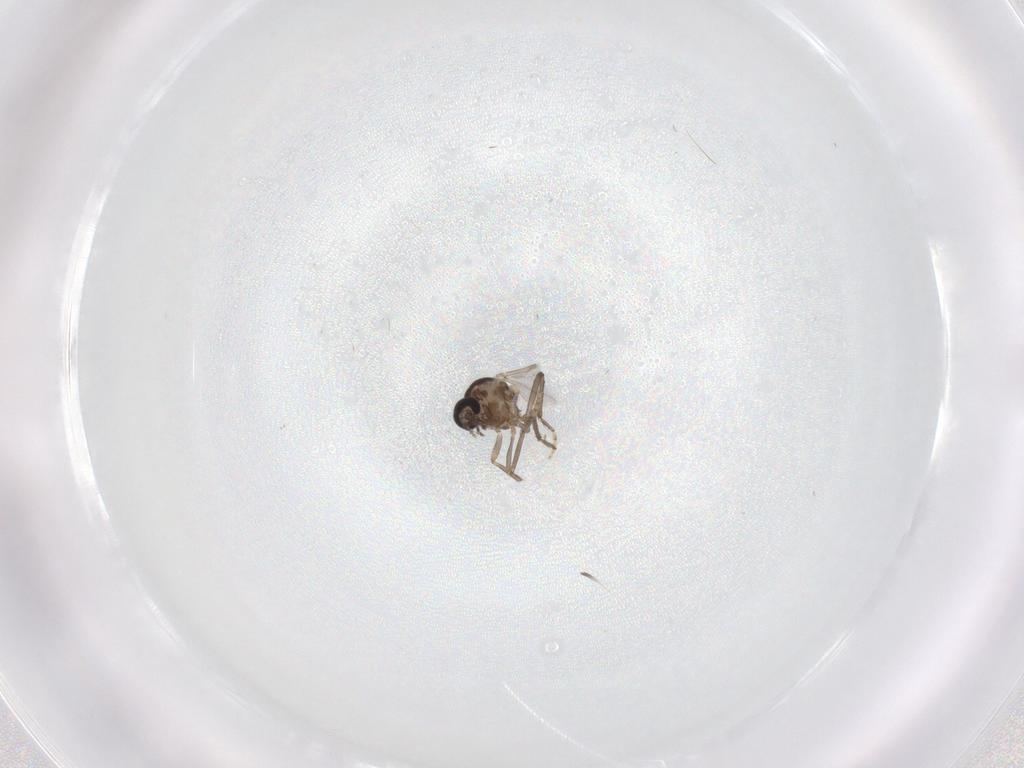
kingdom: Animalia
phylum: Arthropoda
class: Insecta
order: Diptera
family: Ceratopogonidae
